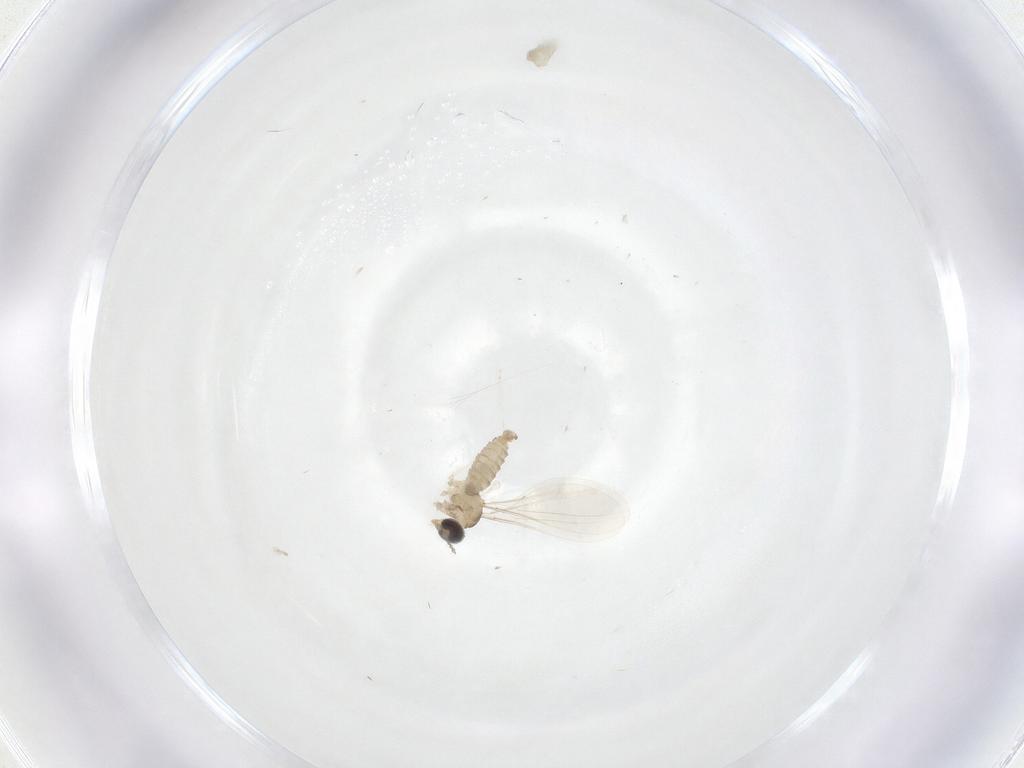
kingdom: Animalia
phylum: Arthropoda
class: Insecta
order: Diptera
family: Cecidomyiidae
